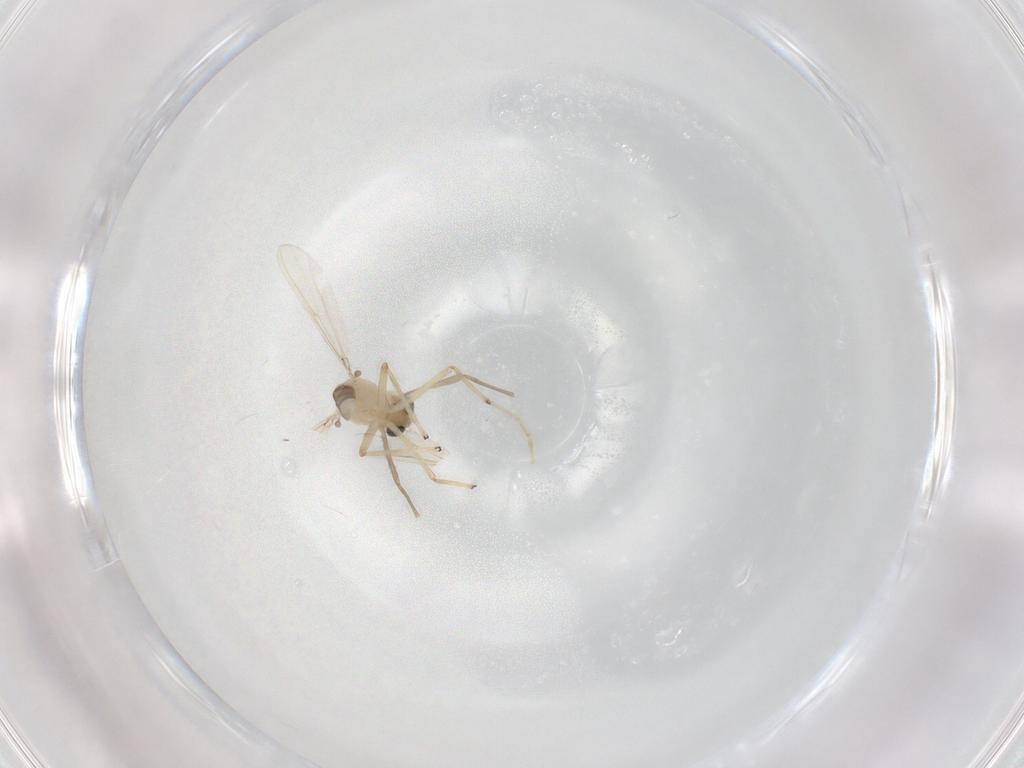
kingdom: Animalia
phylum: Arthropoda
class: Insecta
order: Diptera
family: Chironomidae
